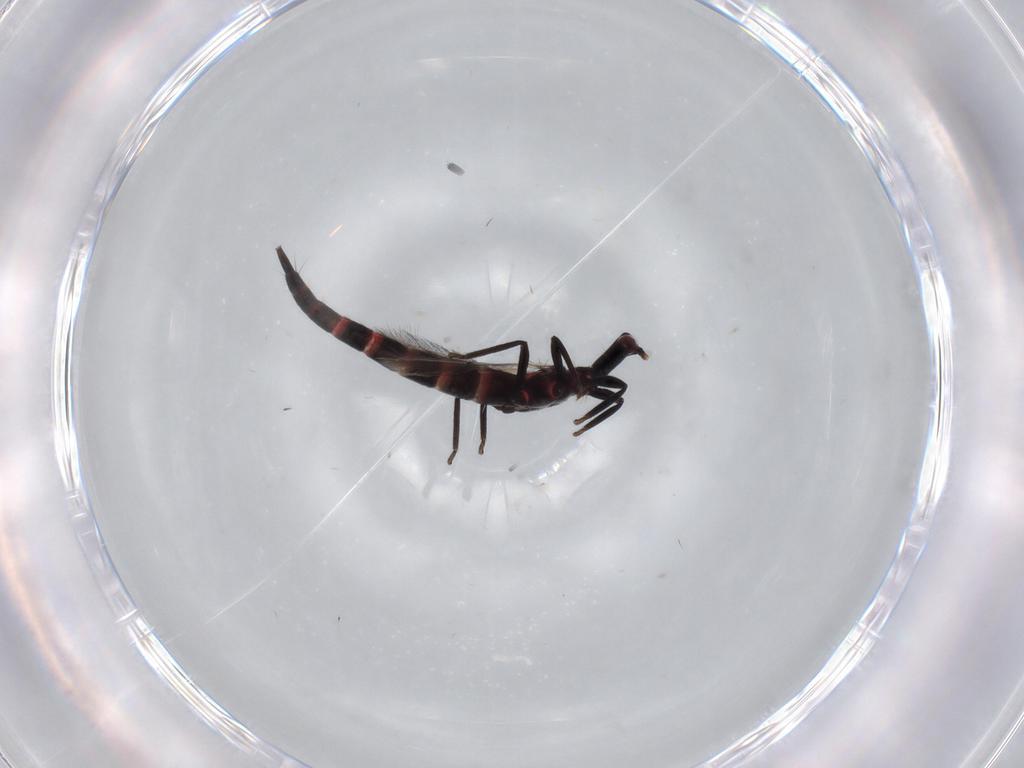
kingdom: Animalia
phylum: Arthropoda
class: Insecta
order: Thysanoptera
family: Phlaeothripidae
